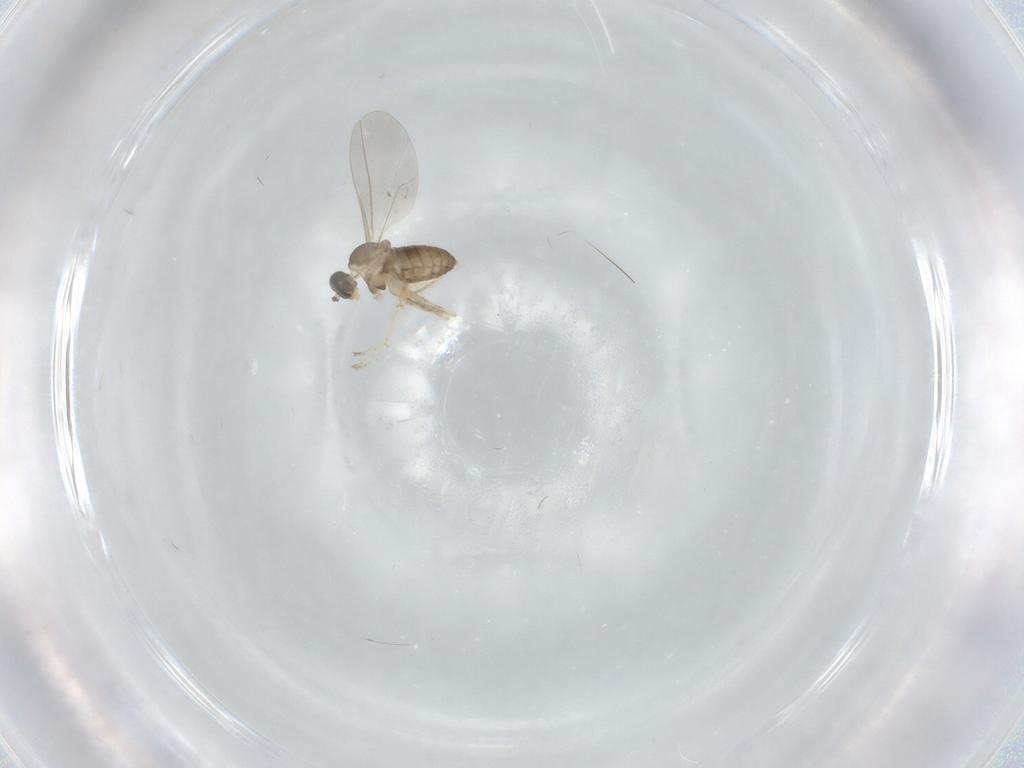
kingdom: Animalia
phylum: Arthropoda
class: Insecta
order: Diptera
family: Cecidomyiidae
